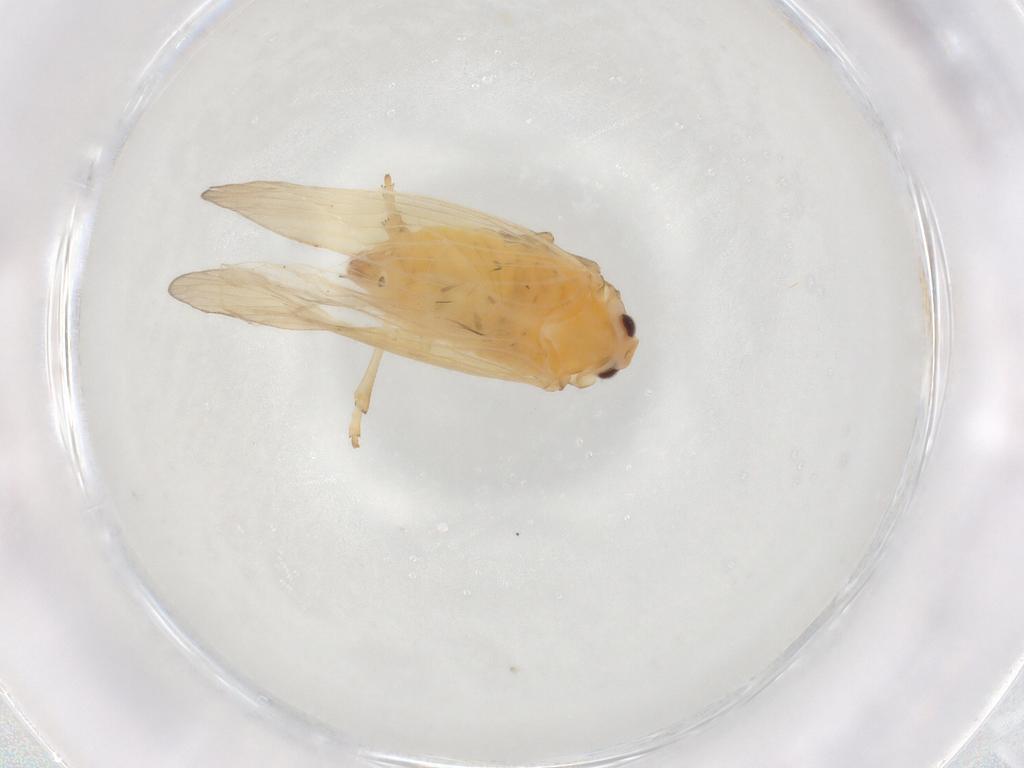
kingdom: Animalia
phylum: Arthropoda
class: Insecta
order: Hemiptera
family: Derbidae
